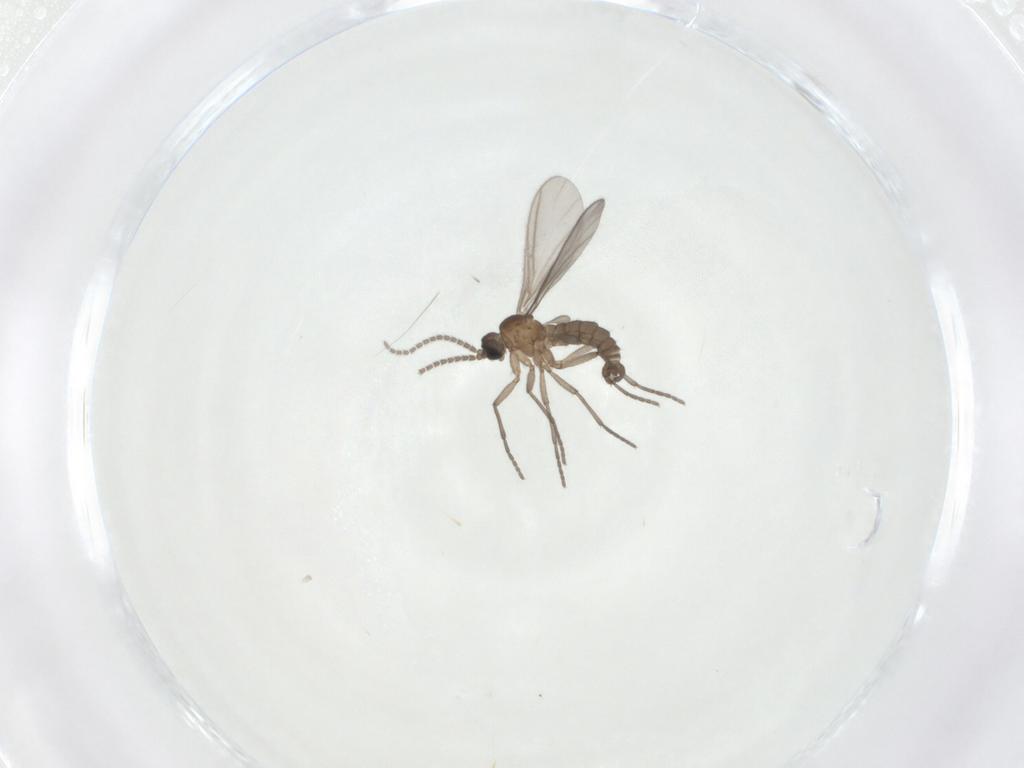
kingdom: Animalia
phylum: Arthropoda
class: Insecta
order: Diptera
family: Sciaridae
